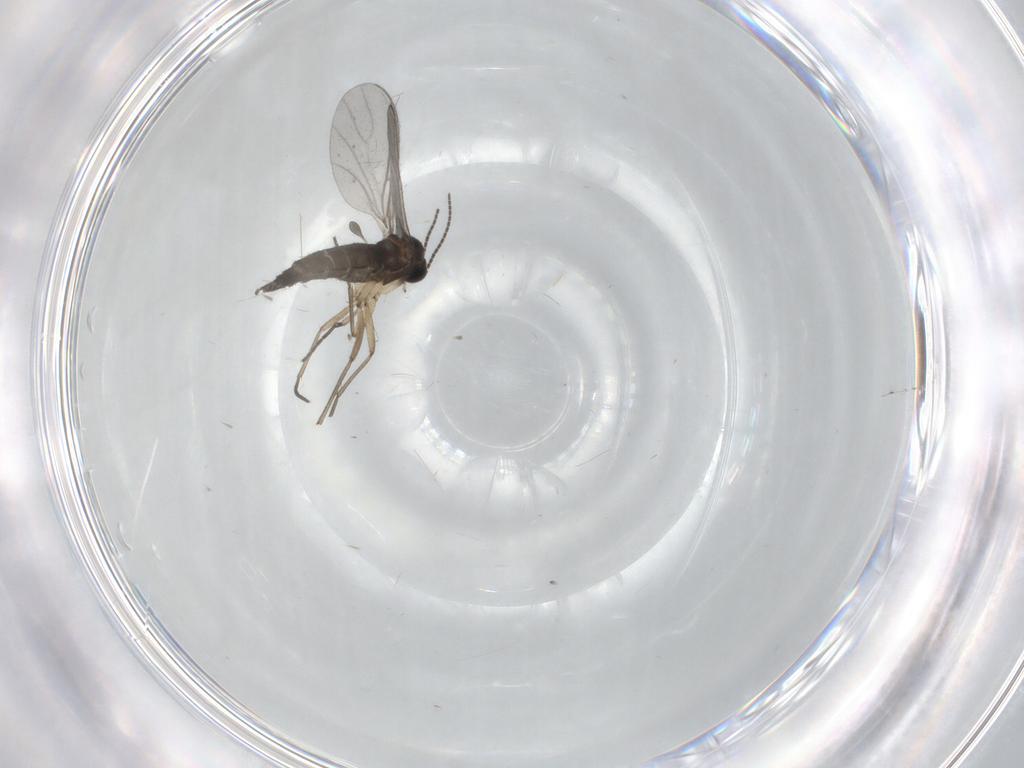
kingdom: Animalia
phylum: Arthropoda
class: Insecta
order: Diptera
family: Sciaridae
